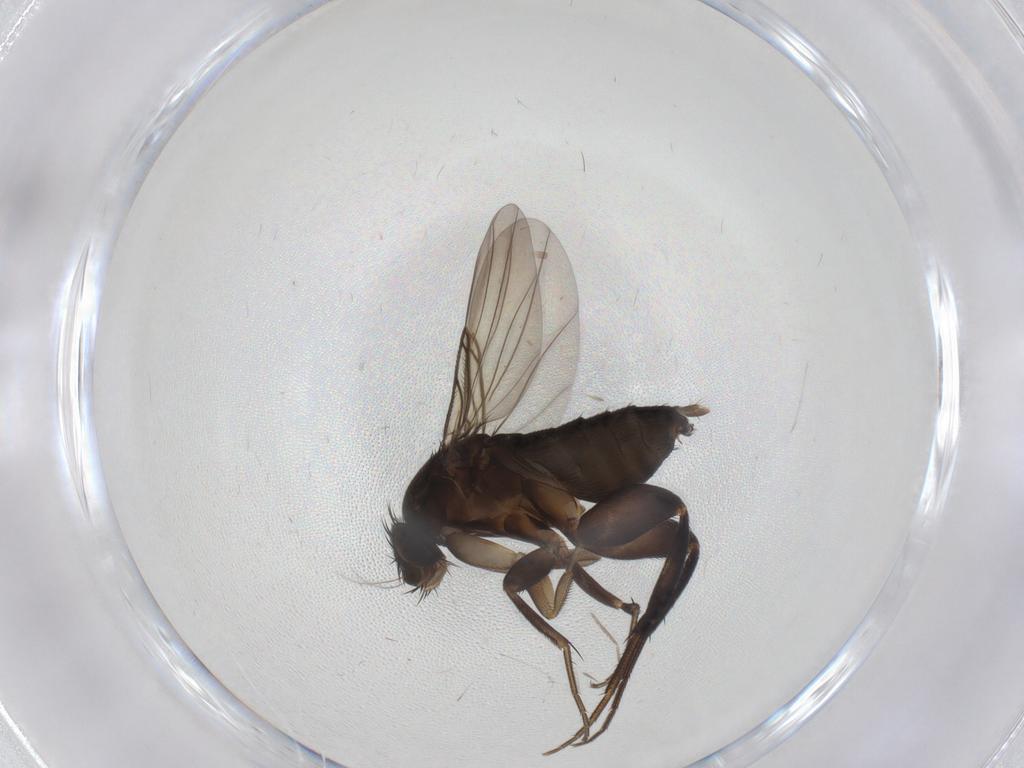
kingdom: Animalia
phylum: Arthropoda
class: Insecta
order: Diptera
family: Phoridae
